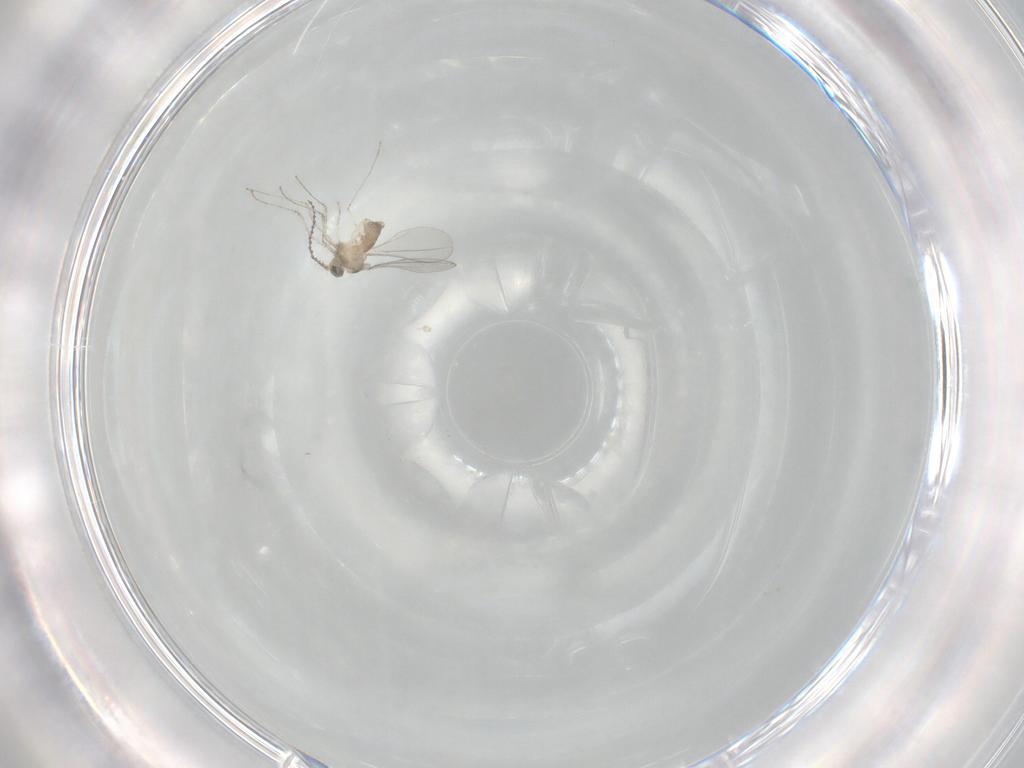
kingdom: Animalia
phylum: Arthropoda
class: Insecta
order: Diptera
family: Cecidomyiidae
